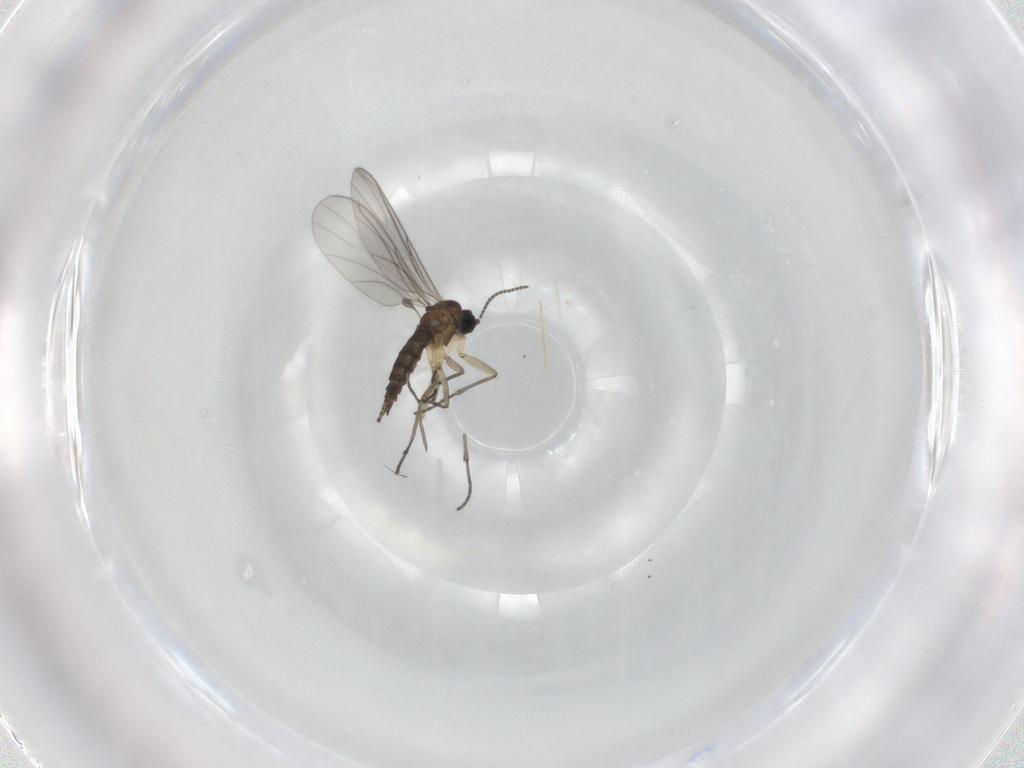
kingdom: Animalia
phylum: Arthropoda
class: Insecta
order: Diptera
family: Sciaridae
